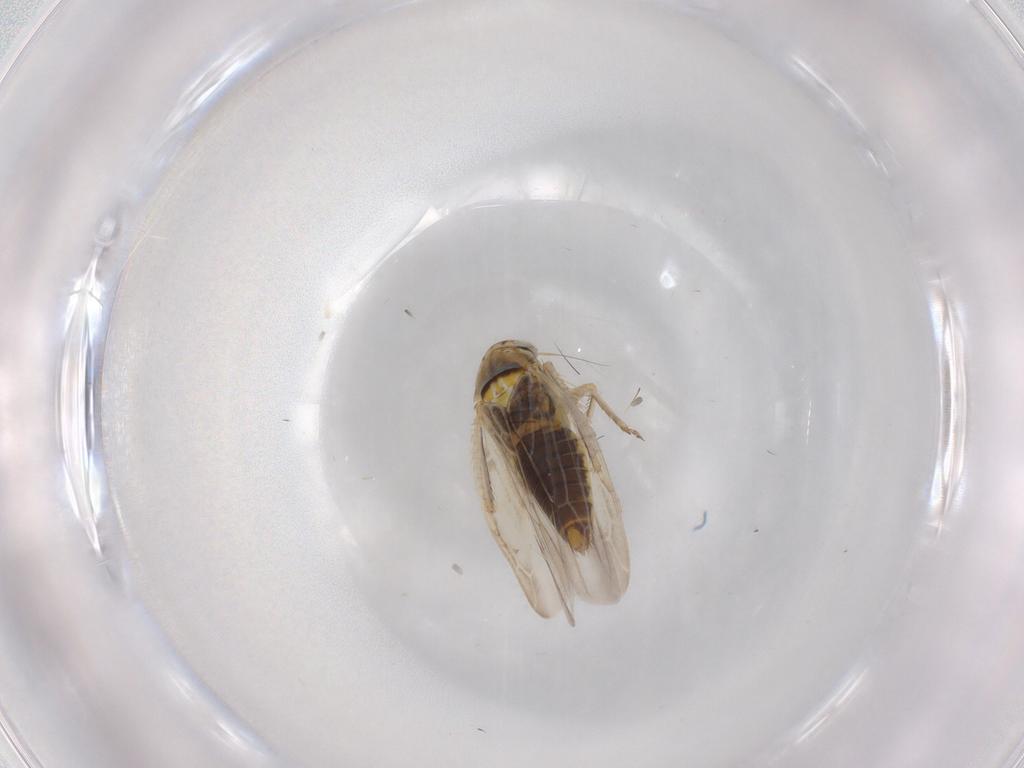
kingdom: Animalia
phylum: Arthropoda
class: Insecta
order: Hemiptera
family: Cicadellidae
